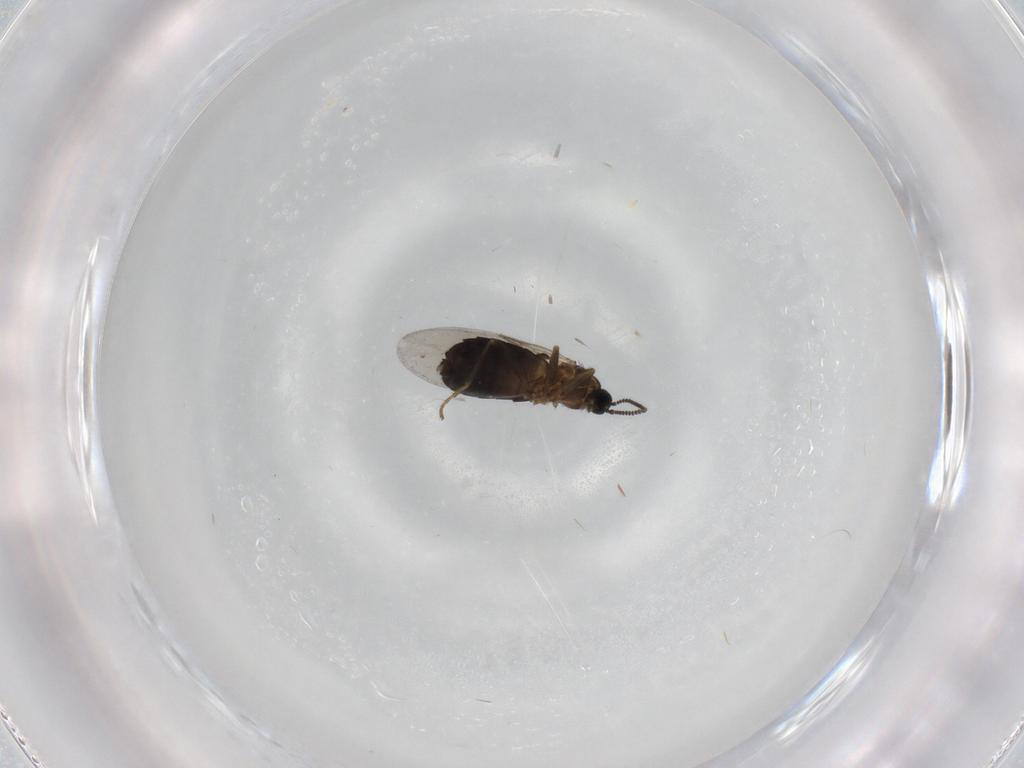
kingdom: Animalia
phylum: Arthropoda
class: Insecta
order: Diptera
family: Scatopsidae
